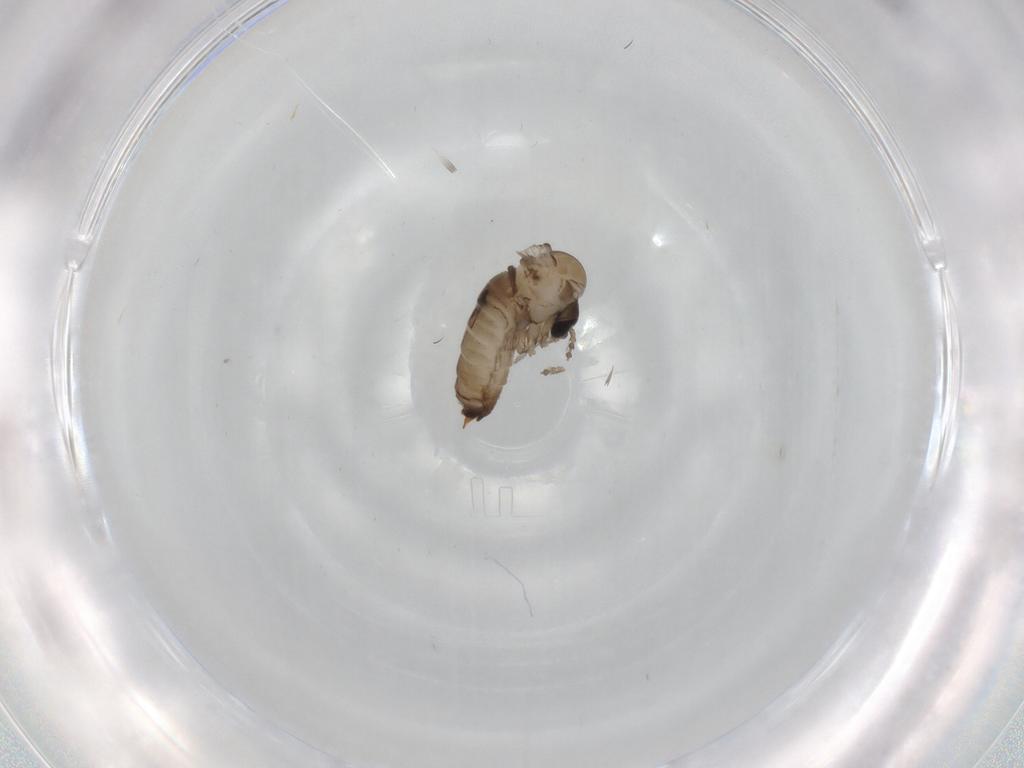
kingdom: Animalia
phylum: Arthropoda
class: Insecta
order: Diptera
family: Psychodidae
